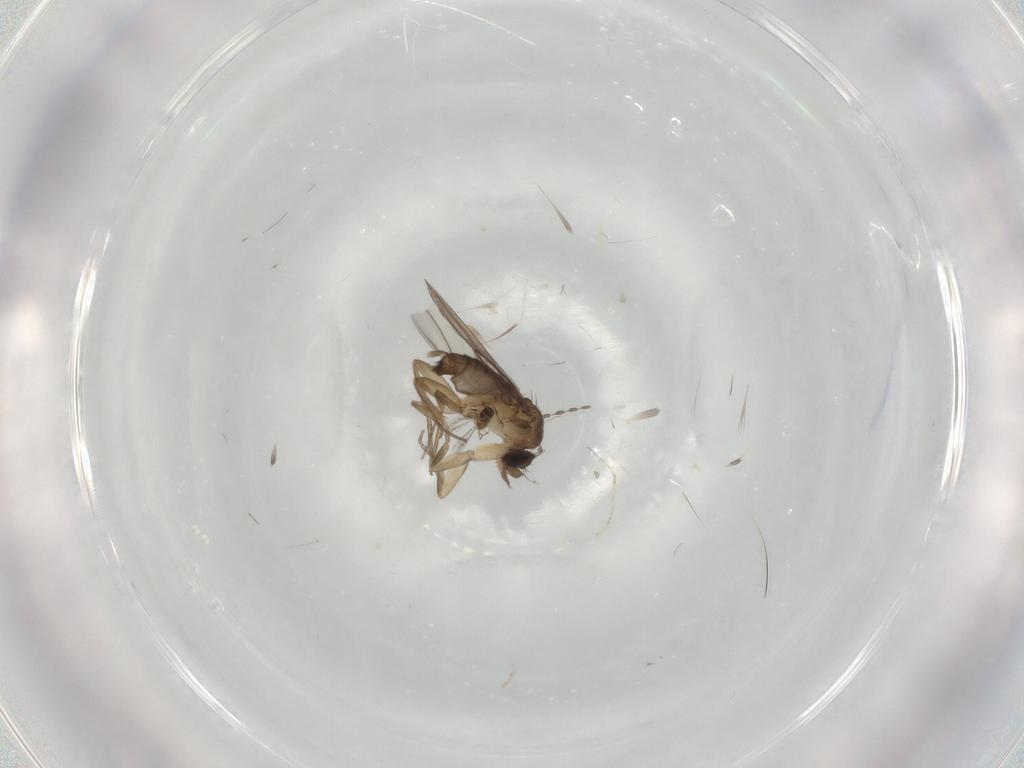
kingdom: Animalia
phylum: Arthropoda
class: Insecta
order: Diptera
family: Phoridae
